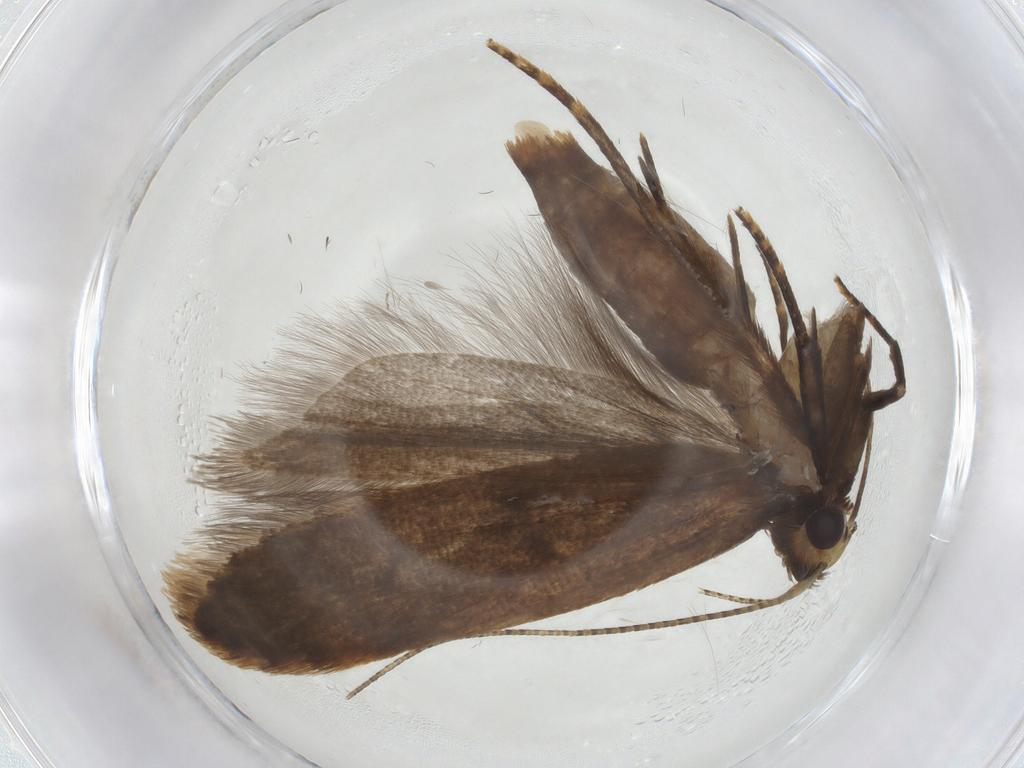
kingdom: Animalia
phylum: Arthropoda
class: Insecta
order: Lepidoptera
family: Gelechiidae
